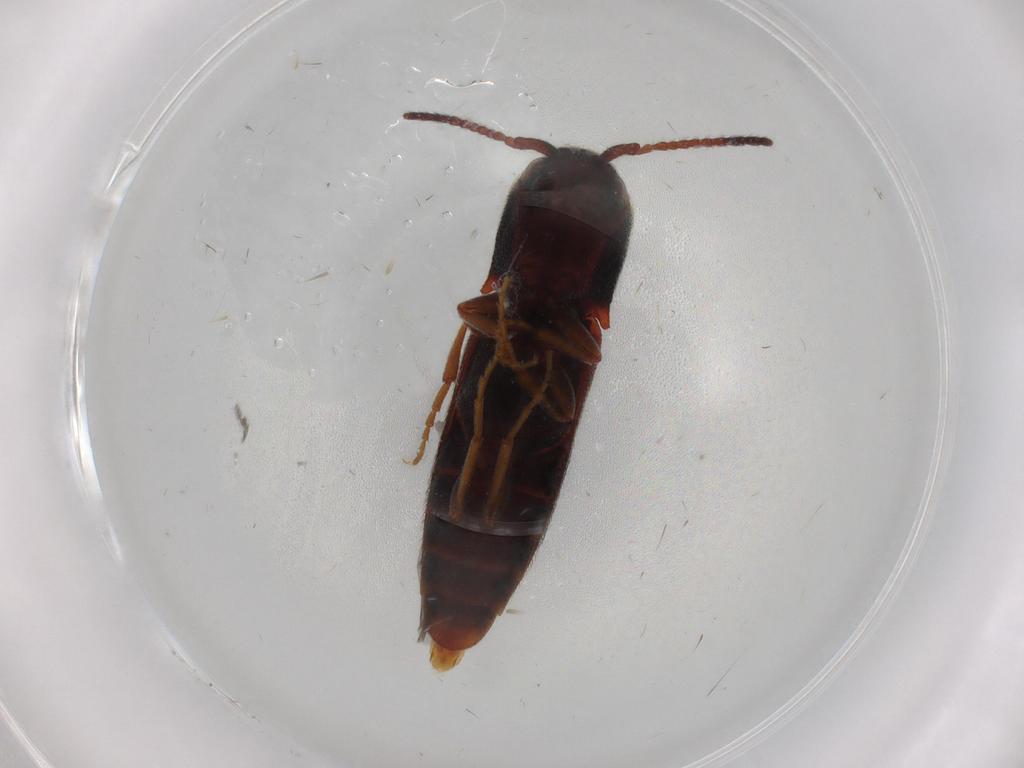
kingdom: Animalia
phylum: Arthropoda
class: Insecta
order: Coleoptera
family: Eucnemidae
